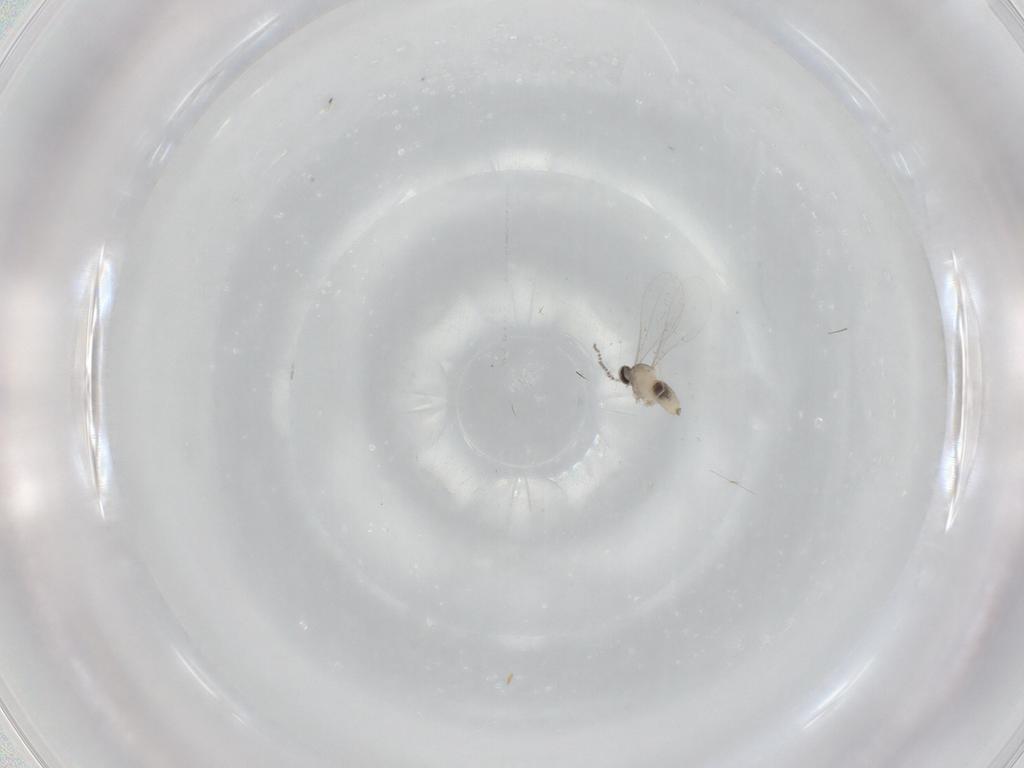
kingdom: Animalia
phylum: Arthropoda
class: Insecta
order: Diptera
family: Cecidomyiidae
